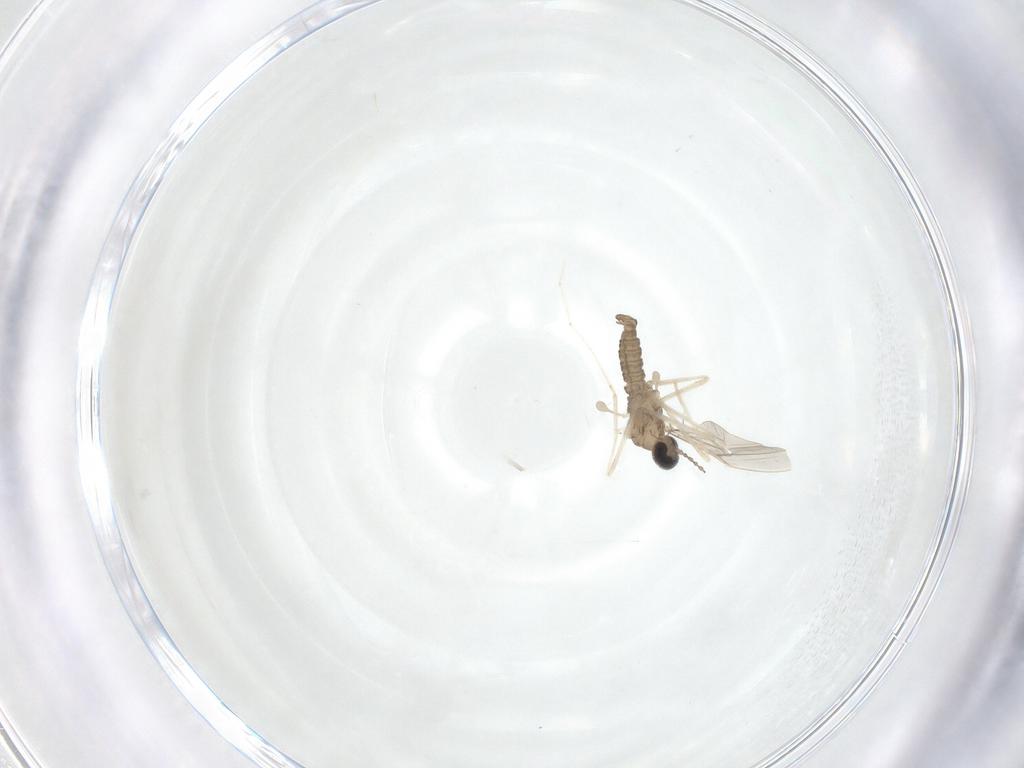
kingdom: Animalia
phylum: Arthropoda
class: Insecta
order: Diptera
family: Cecidomyiidae
